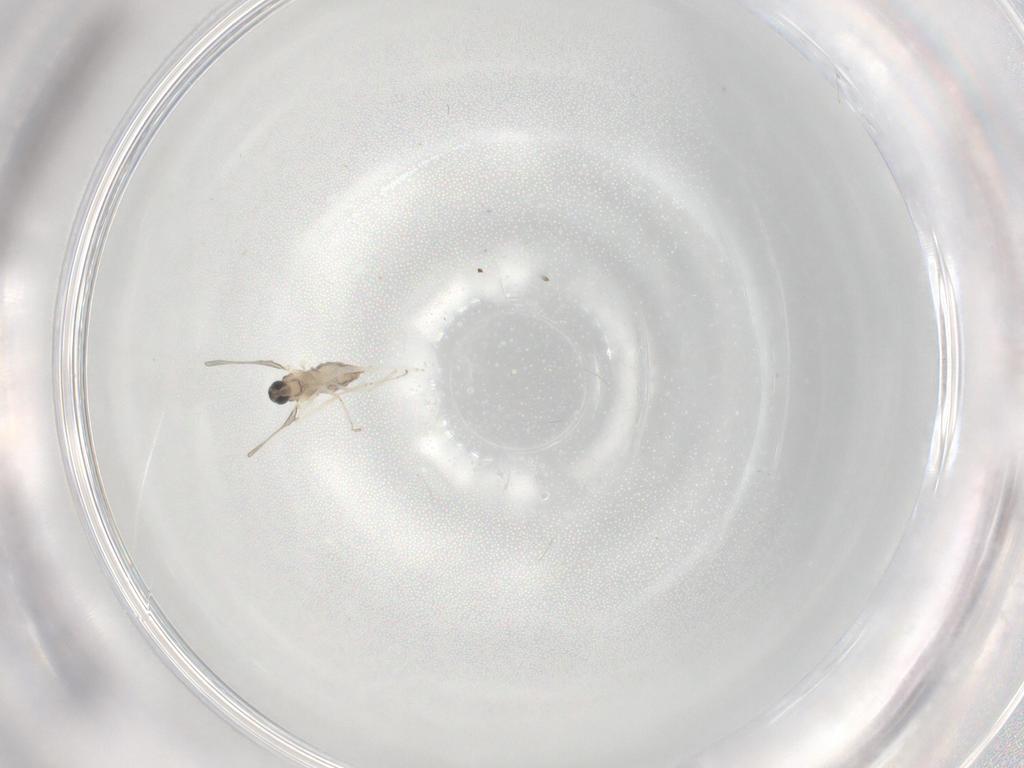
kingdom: Animalia
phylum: Arthropoda
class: Insecta
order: Diptera
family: Cecidomyiidae
